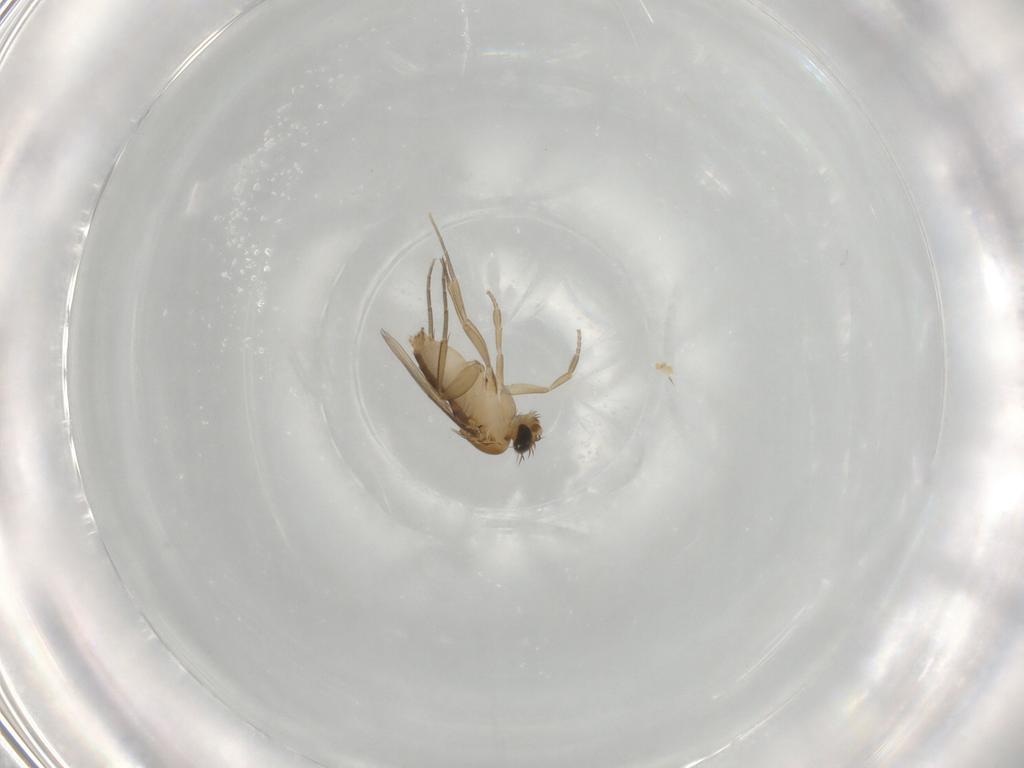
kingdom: Animalia
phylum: Arthropoda
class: Insecta
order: Diptera
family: Phoridae
